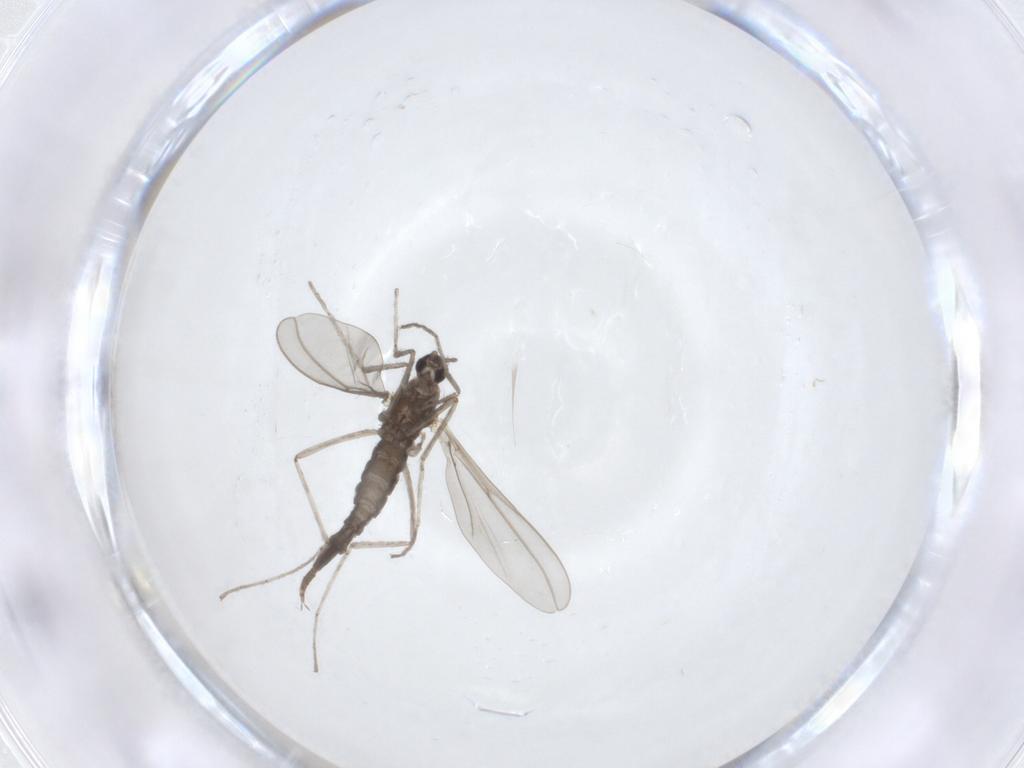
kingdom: Animalia
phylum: Arthropoda
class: Insecta
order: Diptera
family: Cecidomyiidae
